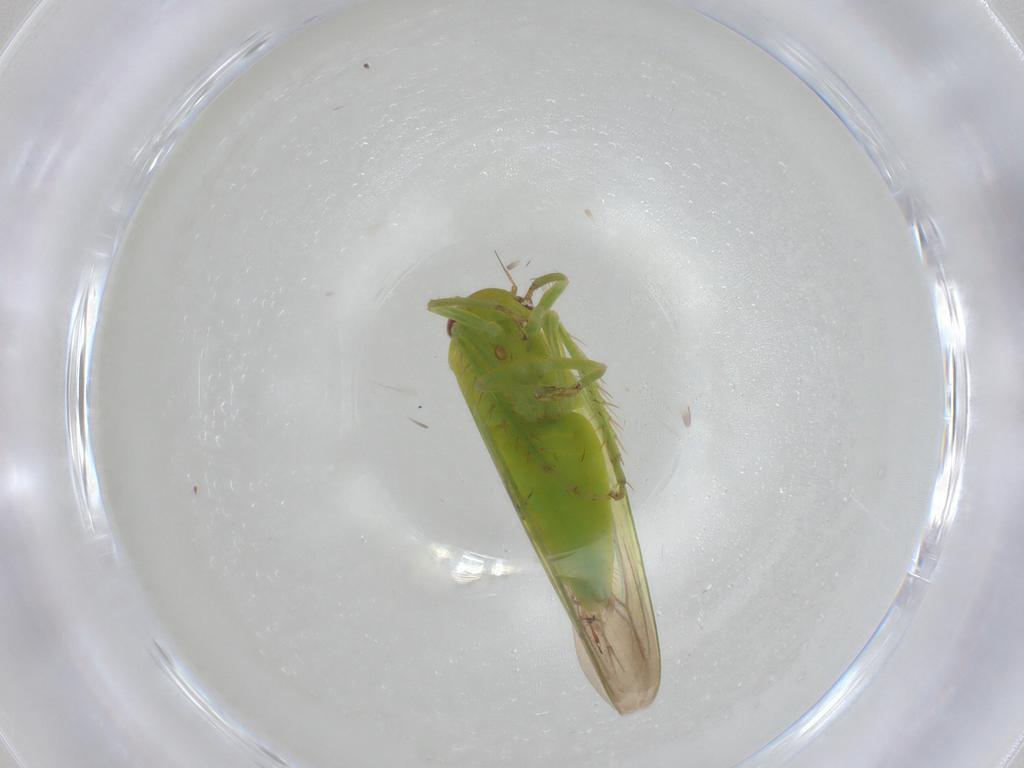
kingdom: Animalia
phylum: Arthropoda
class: Insecta
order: Hemiptera
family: Cicadellidae
